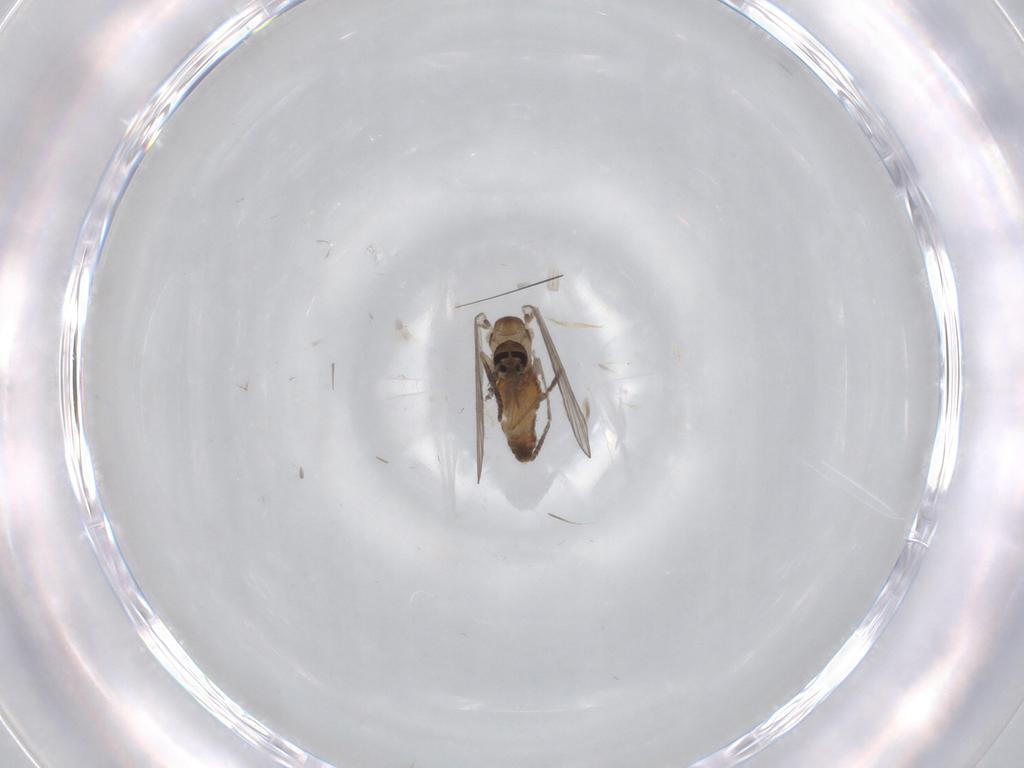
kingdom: Animalia
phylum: Arthropoda
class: Insecta
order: Diptera
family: Psychodidae
